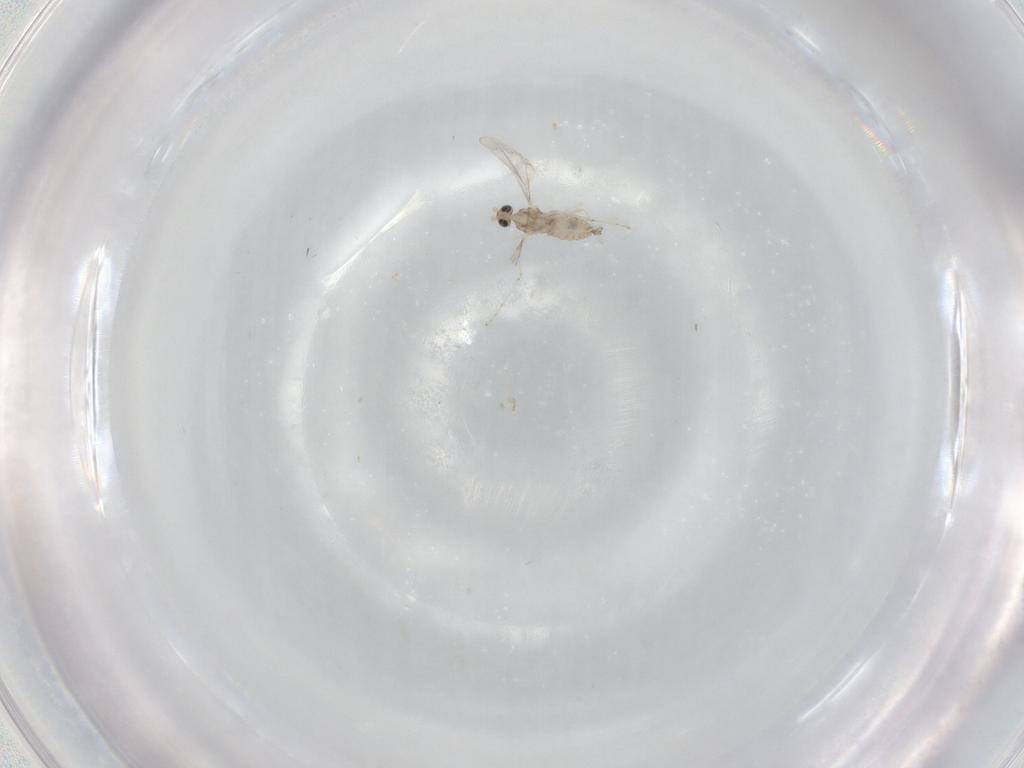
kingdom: Animalia
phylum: Arthropoda
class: Insecta
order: Diptera
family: Cecidomyiidae
